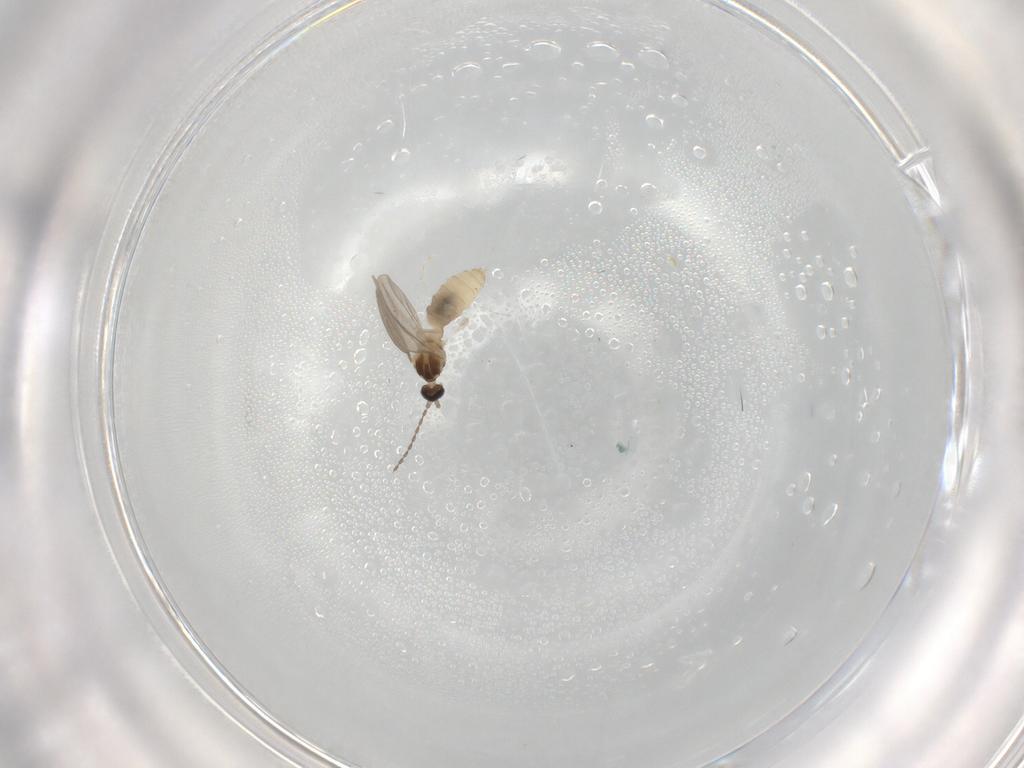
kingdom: Animalia
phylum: Arthropoda
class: Insecta
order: Diptera
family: Cecidomyiidae
